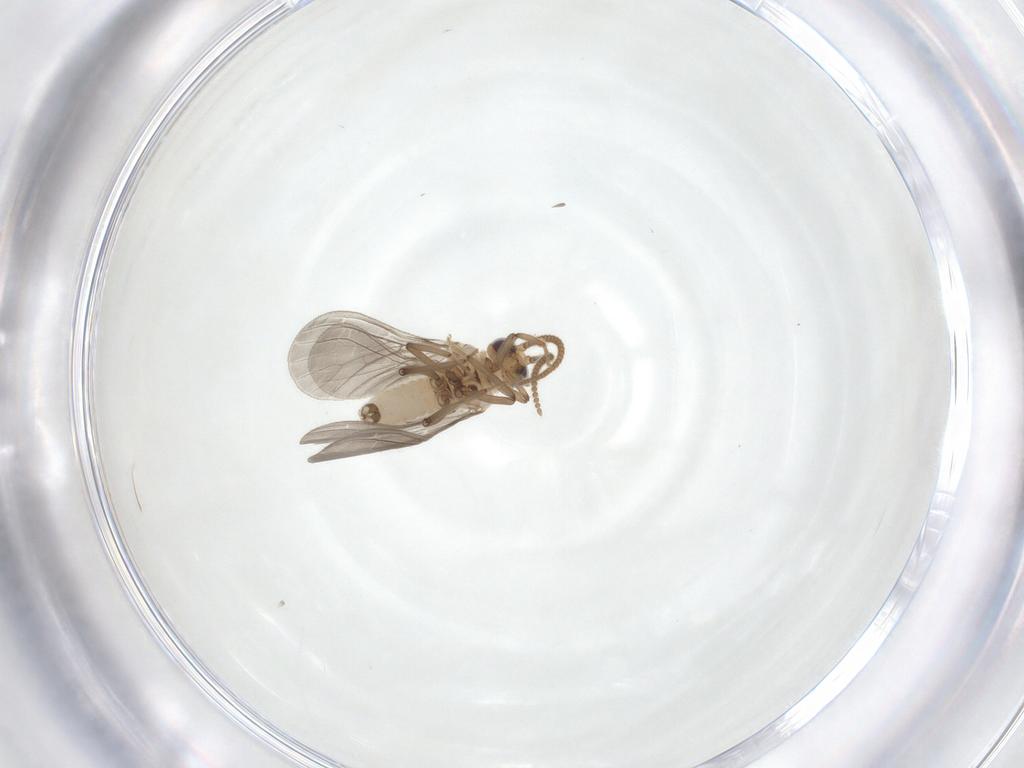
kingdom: Animalia
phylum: Arthropoda
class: Insecta
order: Neuroptera
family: Coniopterygidae
